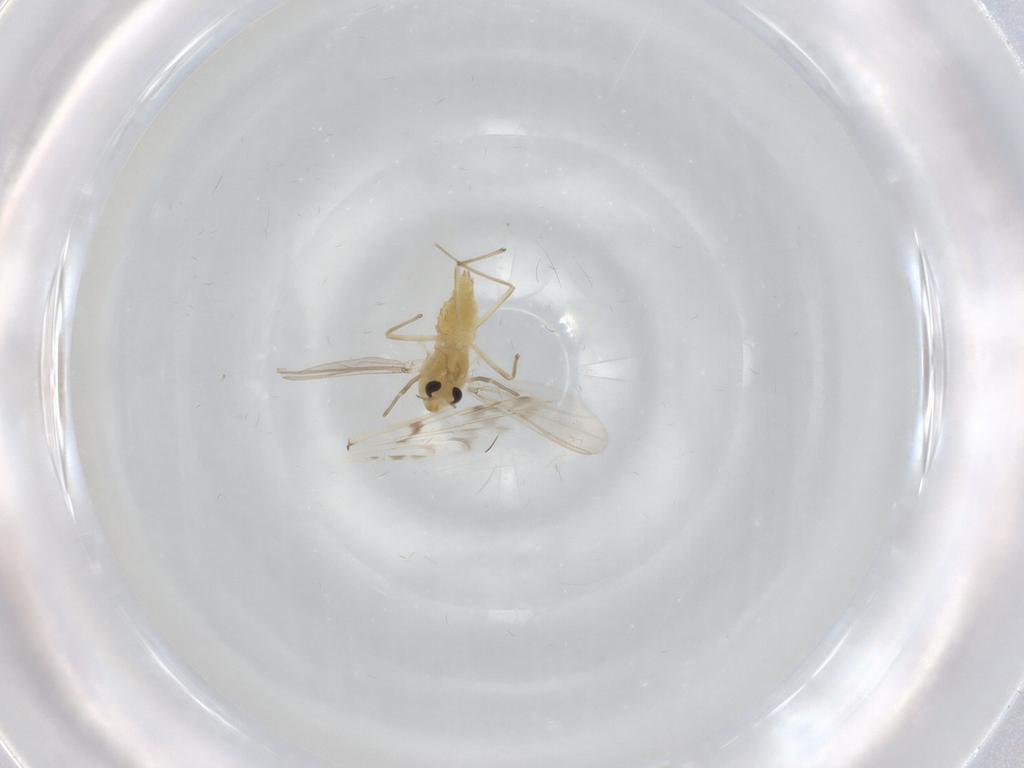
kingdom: Animalia
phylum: Arthropoda
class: Insecta
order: Diptera
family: Chironomidae
